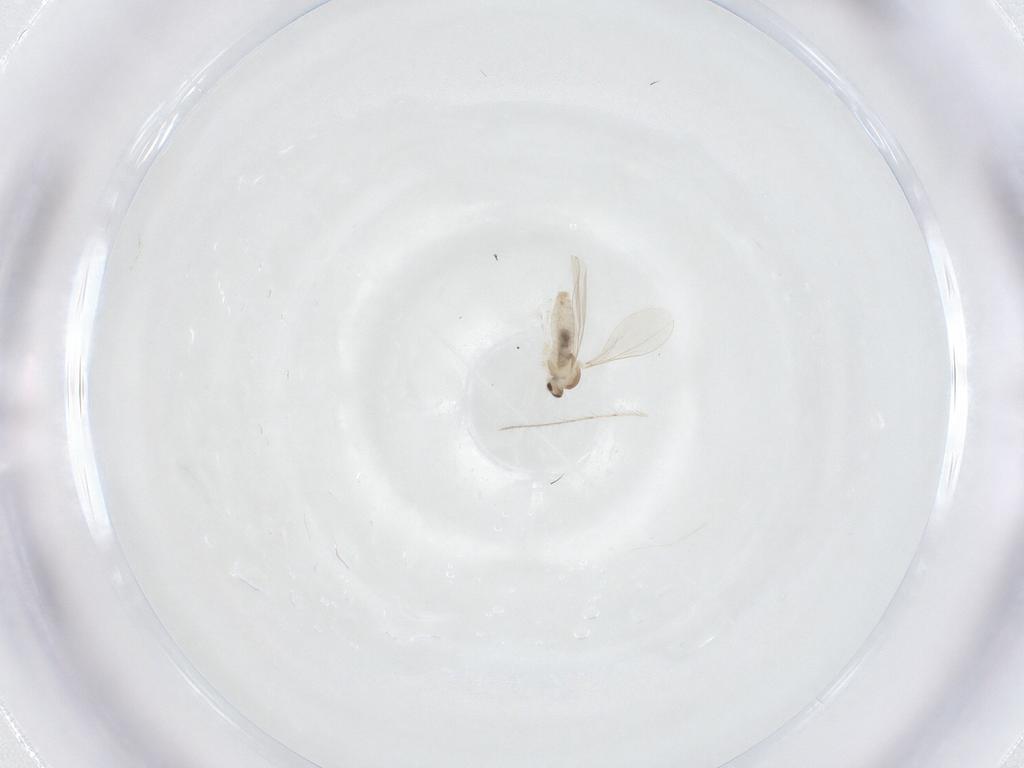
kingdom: Animalia
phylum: Arthropoda
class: Insecta
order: Diptera
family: Cecidomyiidae
